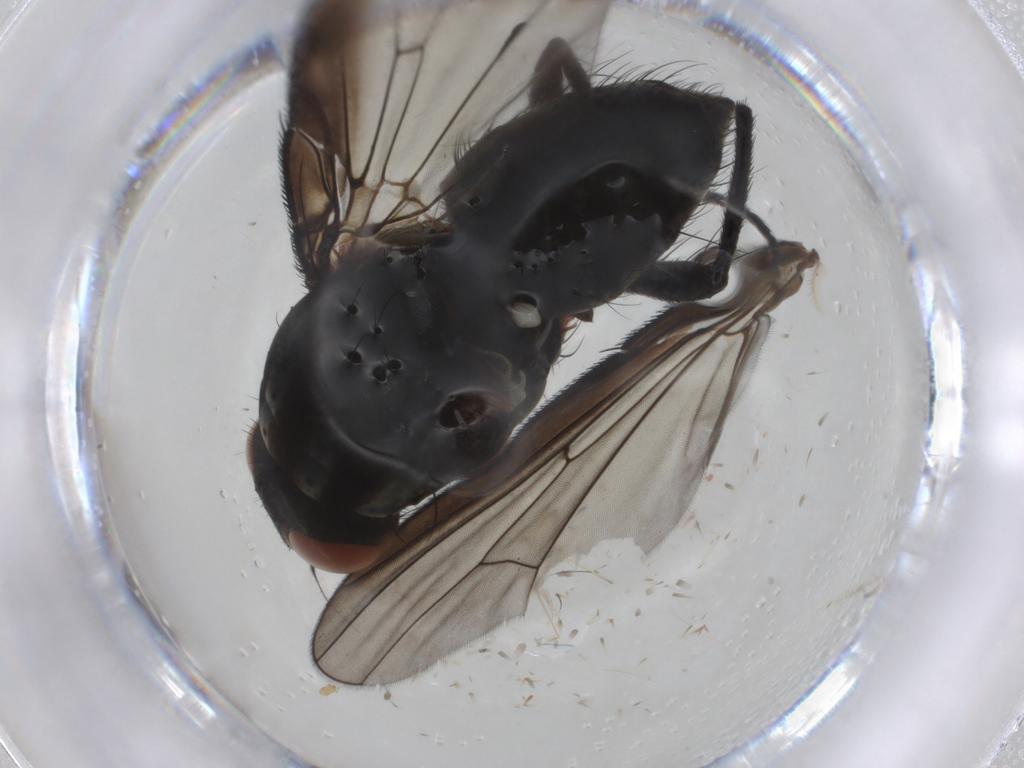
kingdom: Animalia
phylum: Arthropoda
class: Insecta
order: Diptera
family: Anthomyiidae
